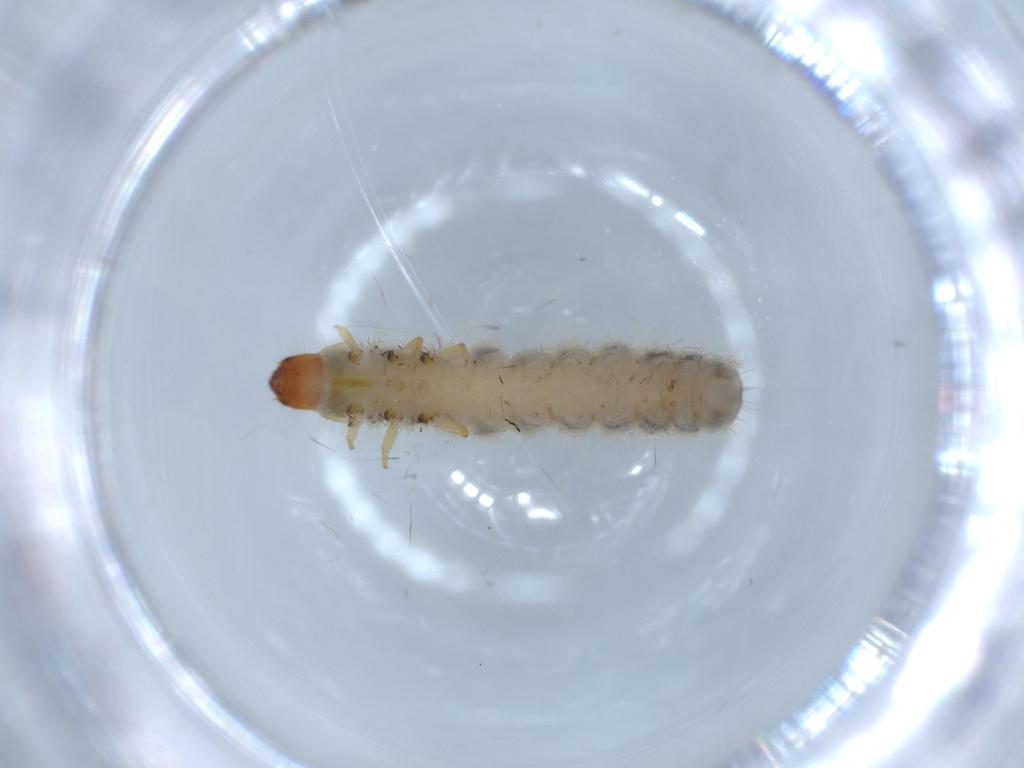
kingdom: Animalia
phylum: Arthropoda
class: Insecta
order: Coleoptera
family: Cleridae
